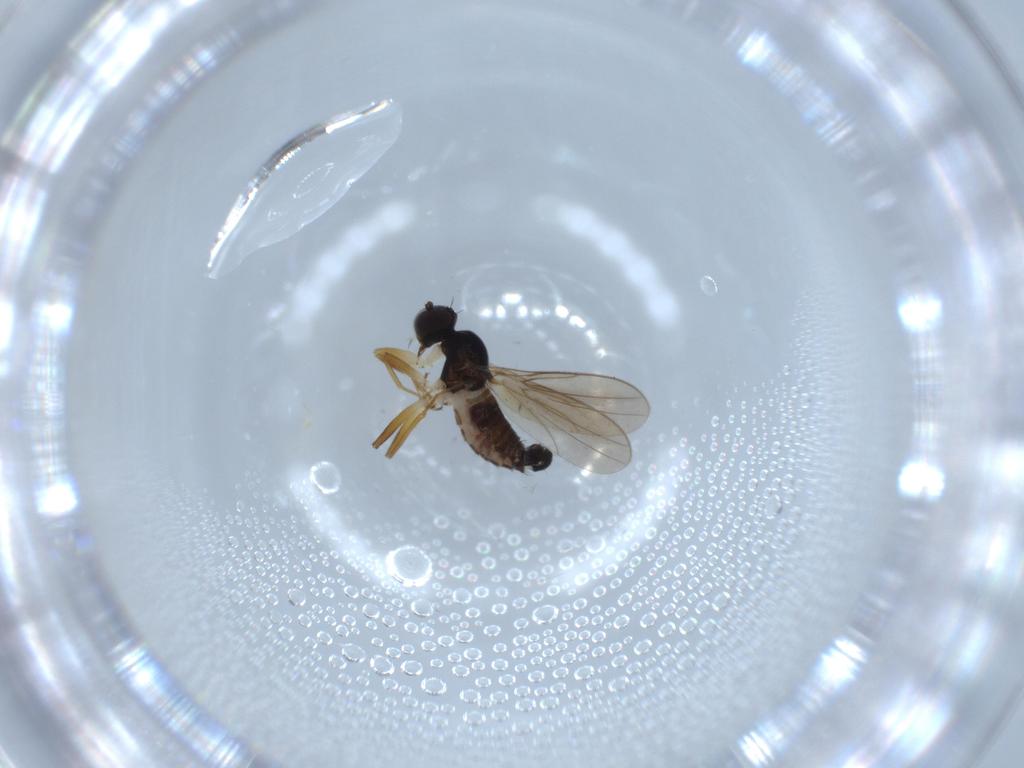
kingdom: Animalia
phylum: Arthropoda
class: Insecta
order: Diptera
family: Hybotidae
